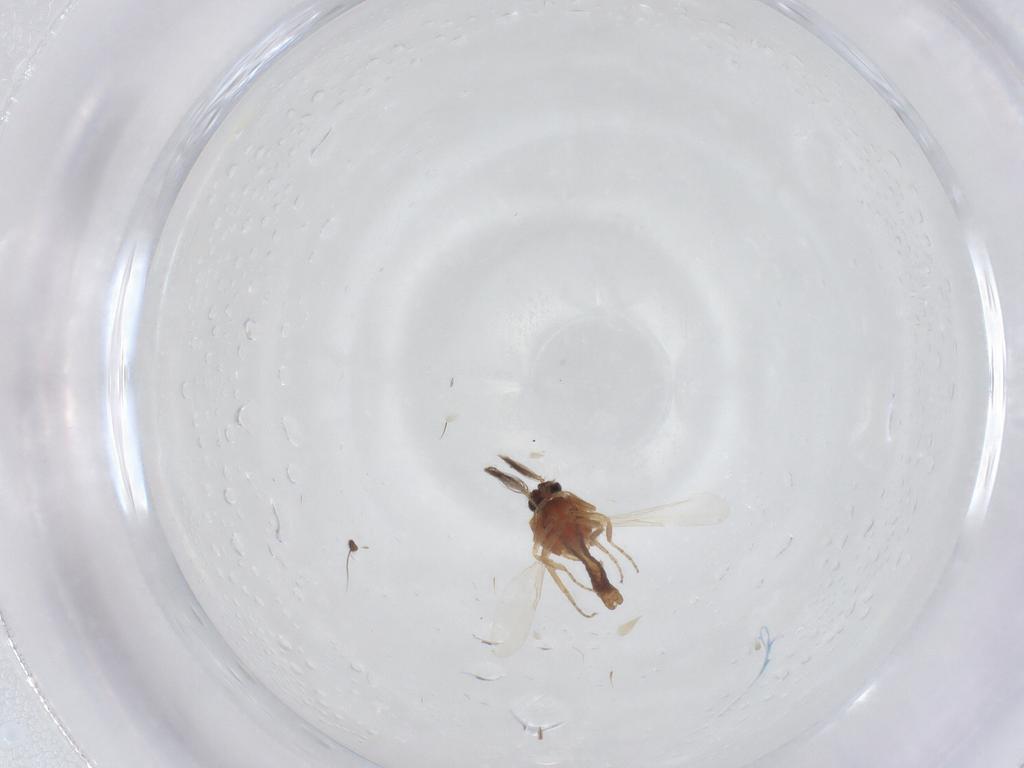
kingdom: Animalia
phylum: Arthropoda
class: Insecta
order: Diptera
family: Ceratopogonidae
